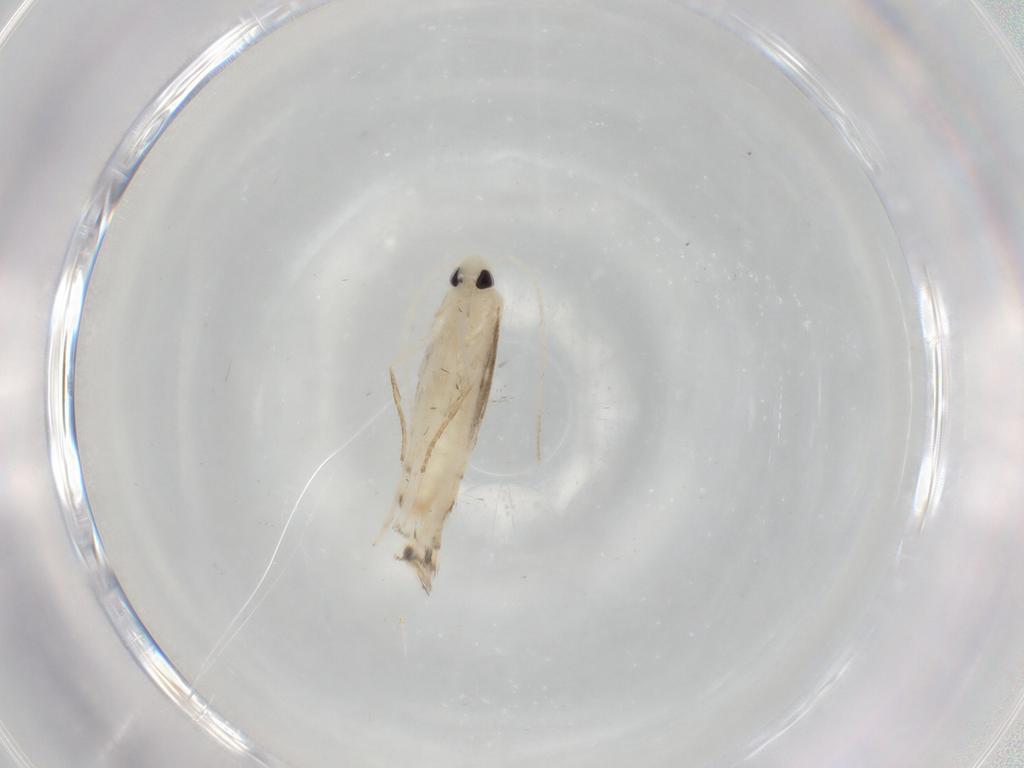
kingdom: Animalia
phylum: Arthropoda
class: Insecta
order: Lepidoptera
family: Gracillariidae
